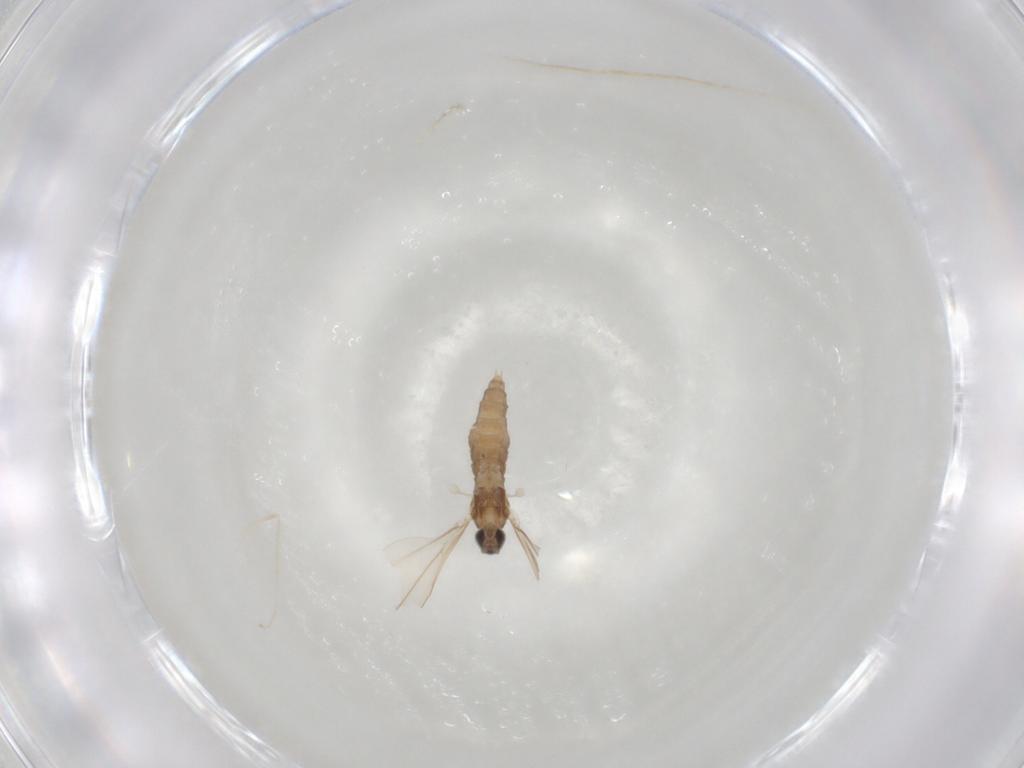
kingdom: Animalia
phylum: Arthropoda
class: Insecta
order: Diptera
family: Cecidomyiidae
